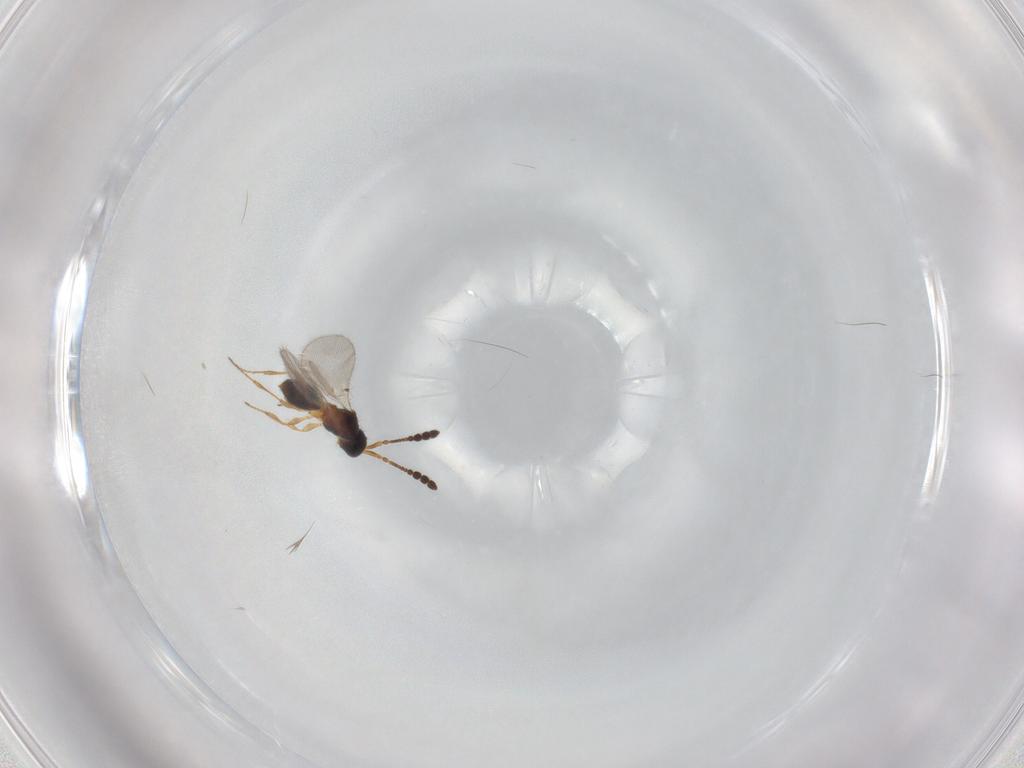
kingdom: Animalia
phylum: Arthropoda
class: Insecta
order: Hymenoptera
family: Diapriidae
